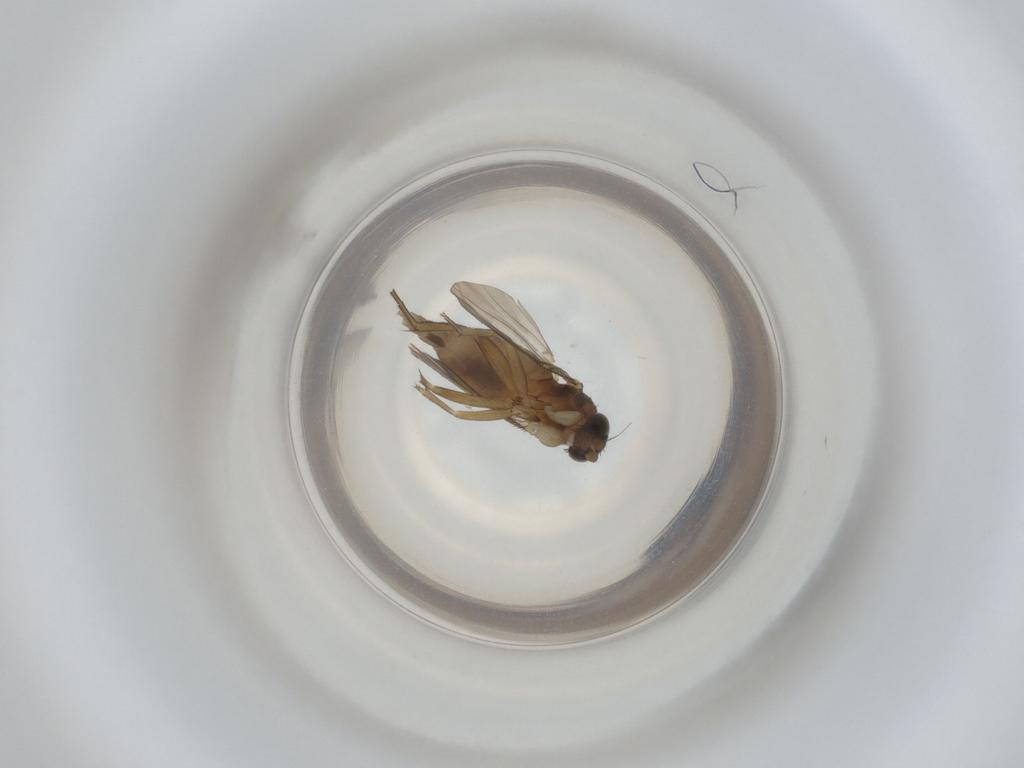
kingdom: Animalia
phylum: Arthropoda
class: Insecta
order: Diptera
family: Phoridae
